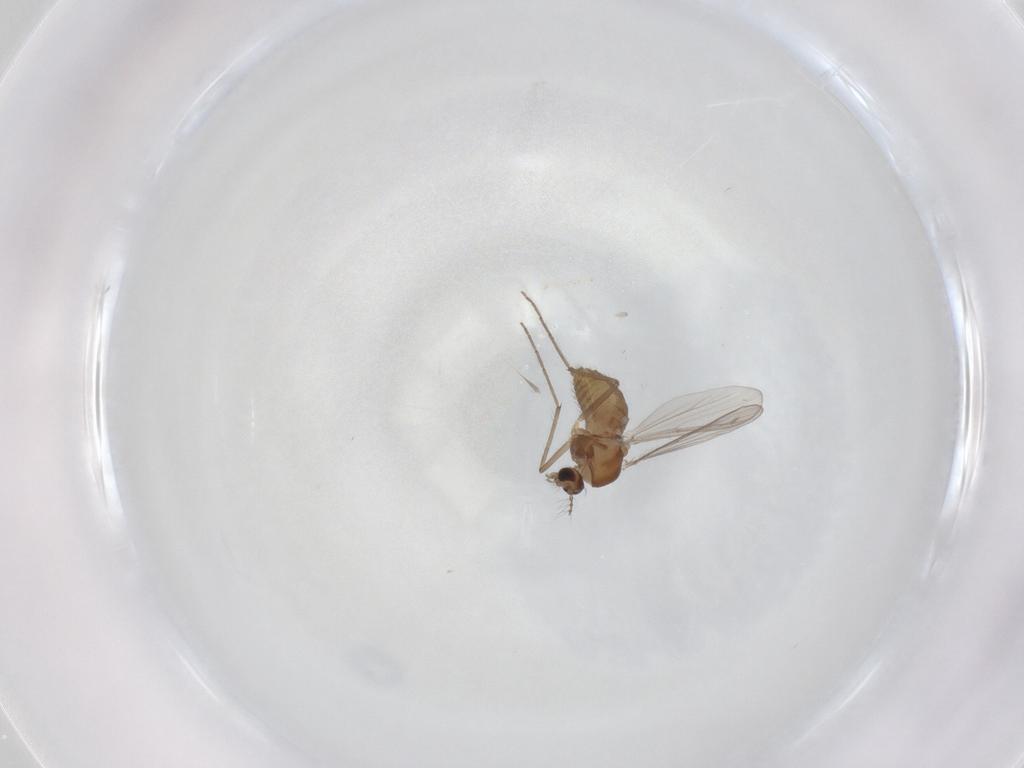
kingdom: Animalia
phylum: Arthropoda
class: Insecta
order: Diptera
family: Chironomidae
